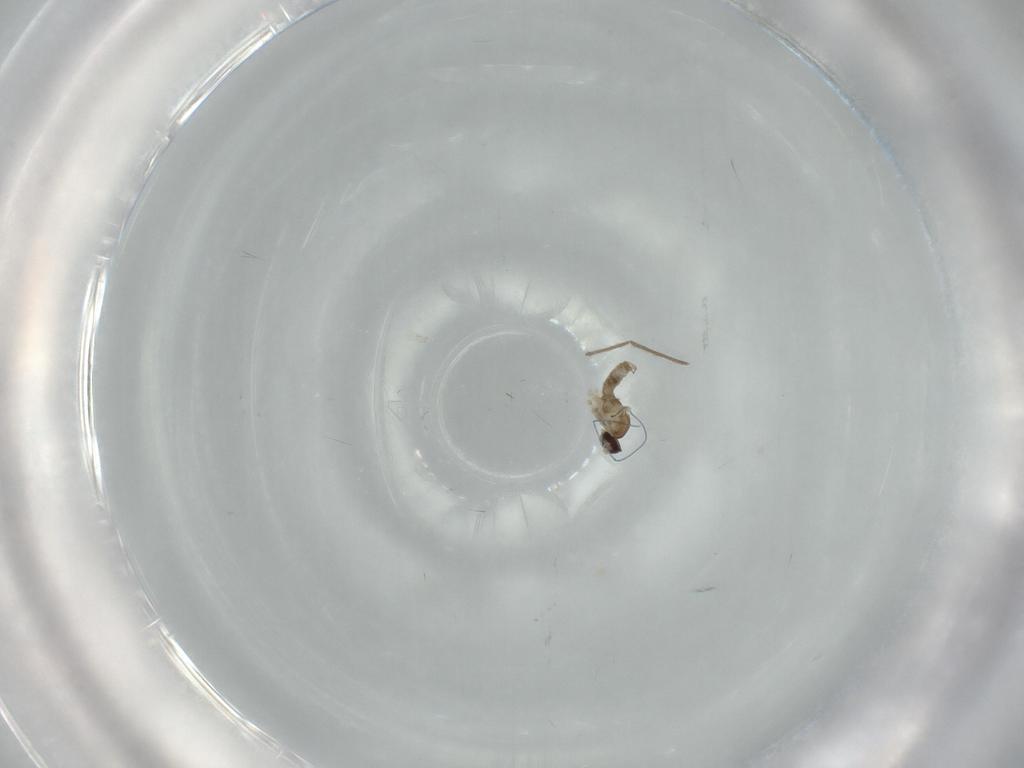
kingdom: Animalia
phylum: Arthropoda
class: Insecta
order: Diptera
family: Cecidomyiidae
